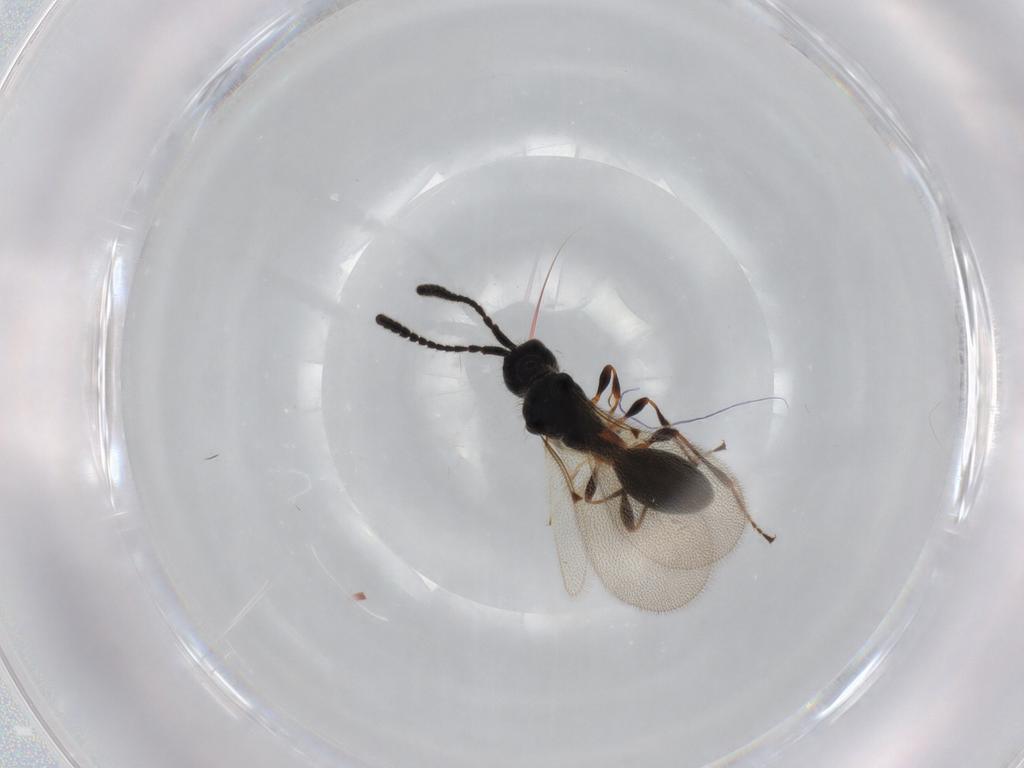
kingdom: Animalia
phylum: Arthropoda
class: Insecta
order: Hymenoptera
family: Diapriidae
